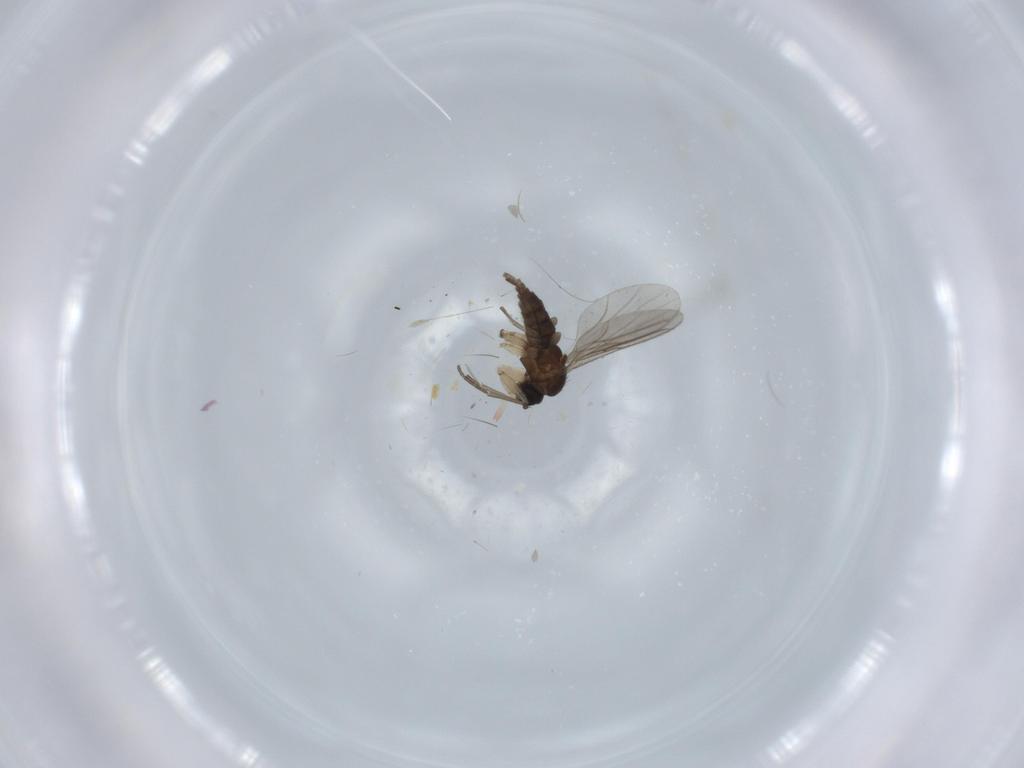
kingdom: Animalia
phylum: Arthropoda
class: Insecta
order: Diptera
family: Sciaridae
